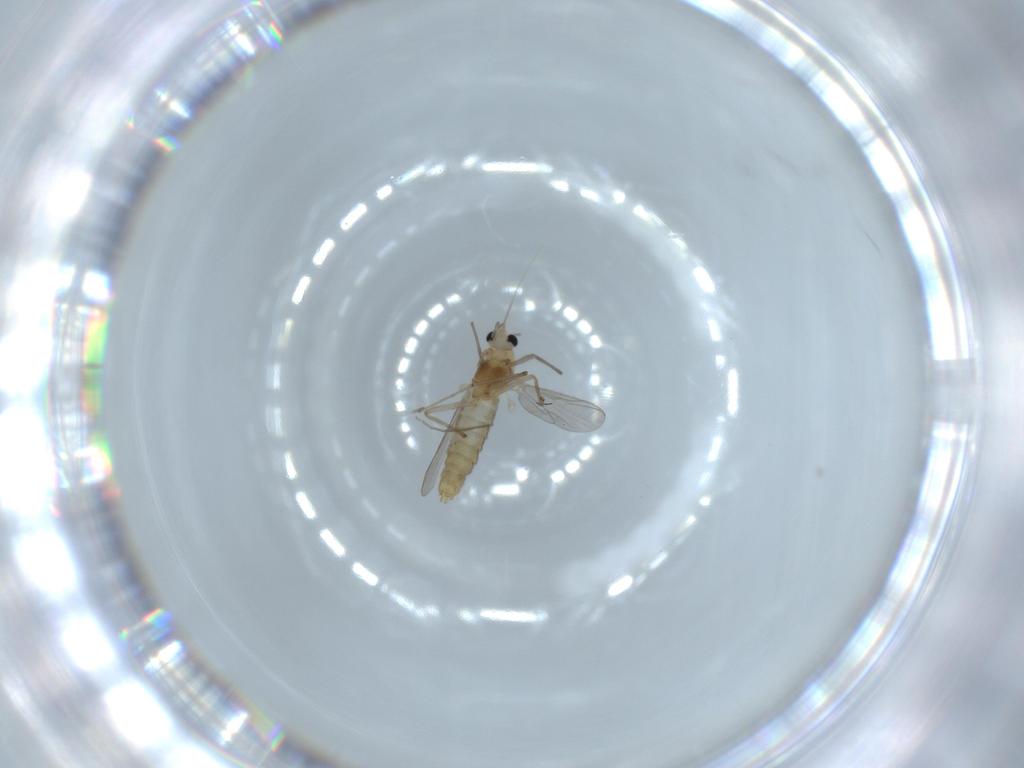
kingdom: Animalia
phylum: Arthropoda
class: Insecta
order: Diptera
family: Chironomidae
